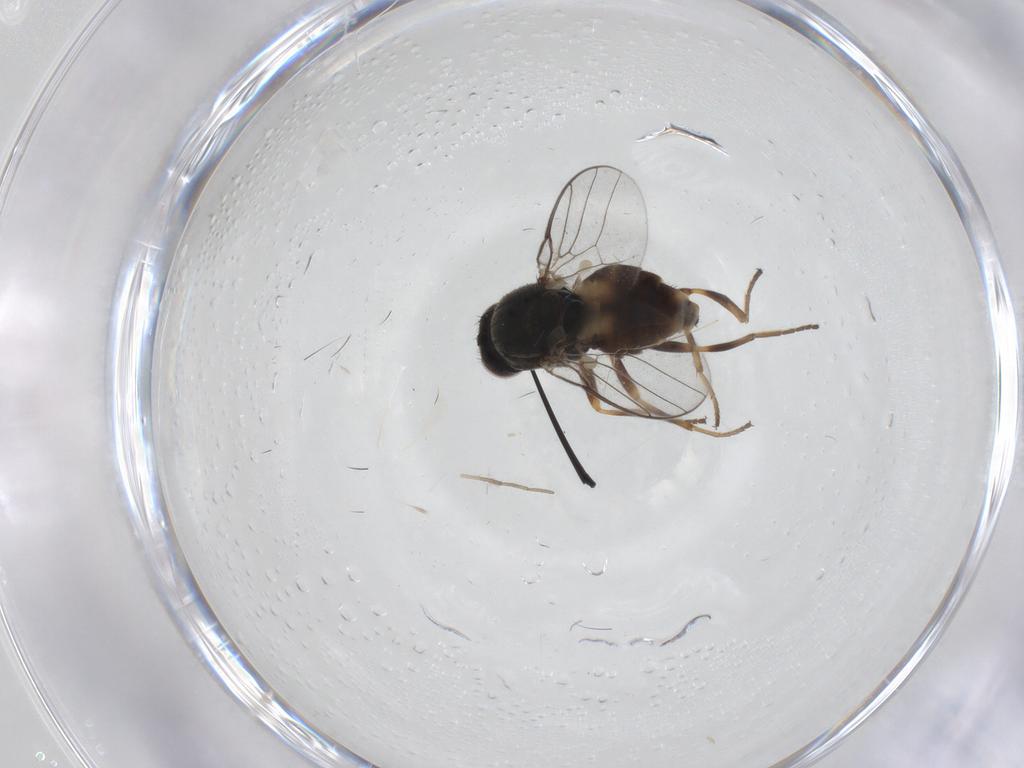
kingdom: Animalia
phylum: Arthropoda
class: Insecta
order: Diptera
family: Chloropidae
